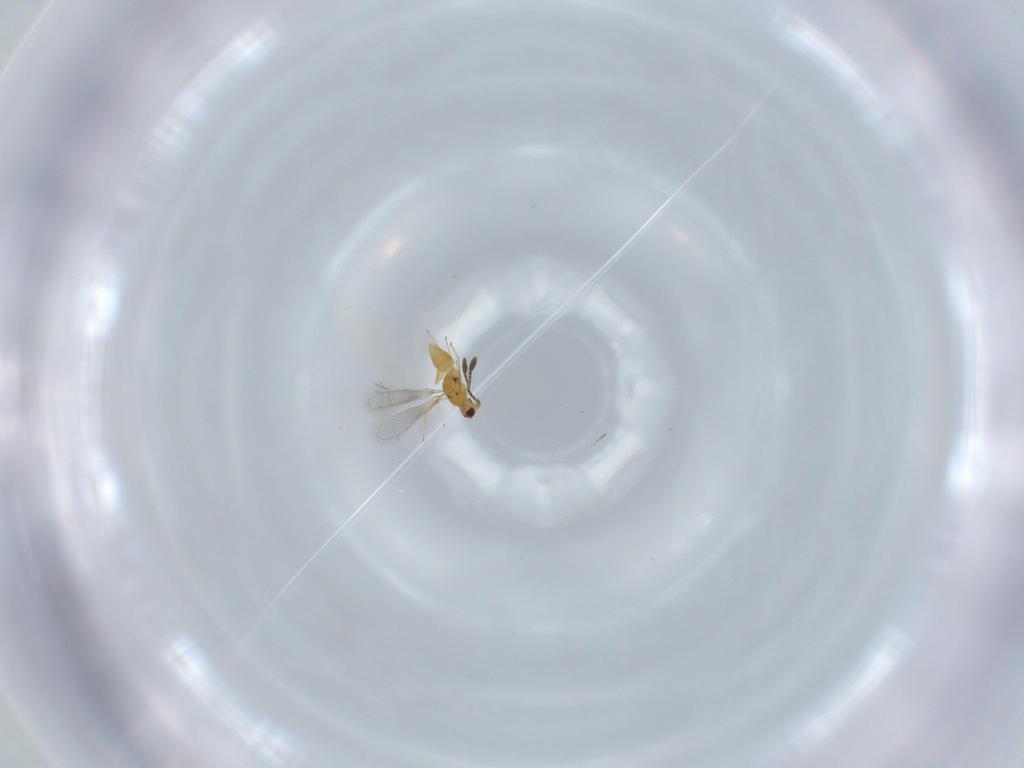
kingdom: Animalia
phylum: Arthropoda
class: Insecta
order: Hymenoptera
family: Mymaridae
